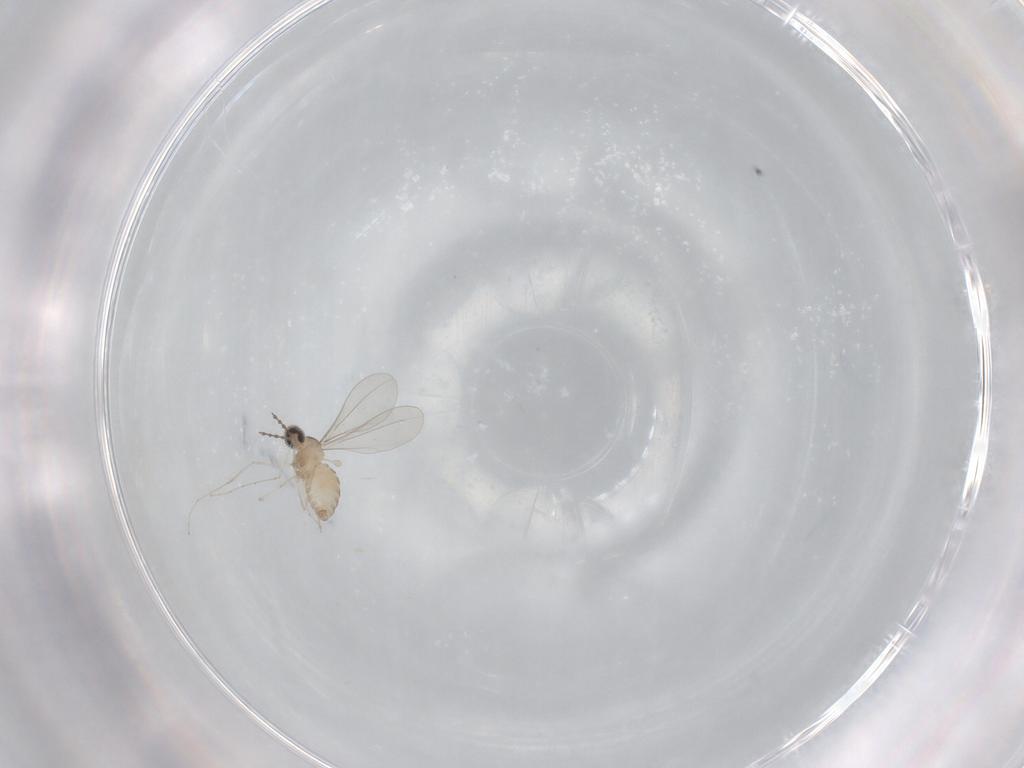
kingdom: Animalia
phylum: Arthropoda
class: Insecta
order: Diptera
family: Cecidomyiidae
